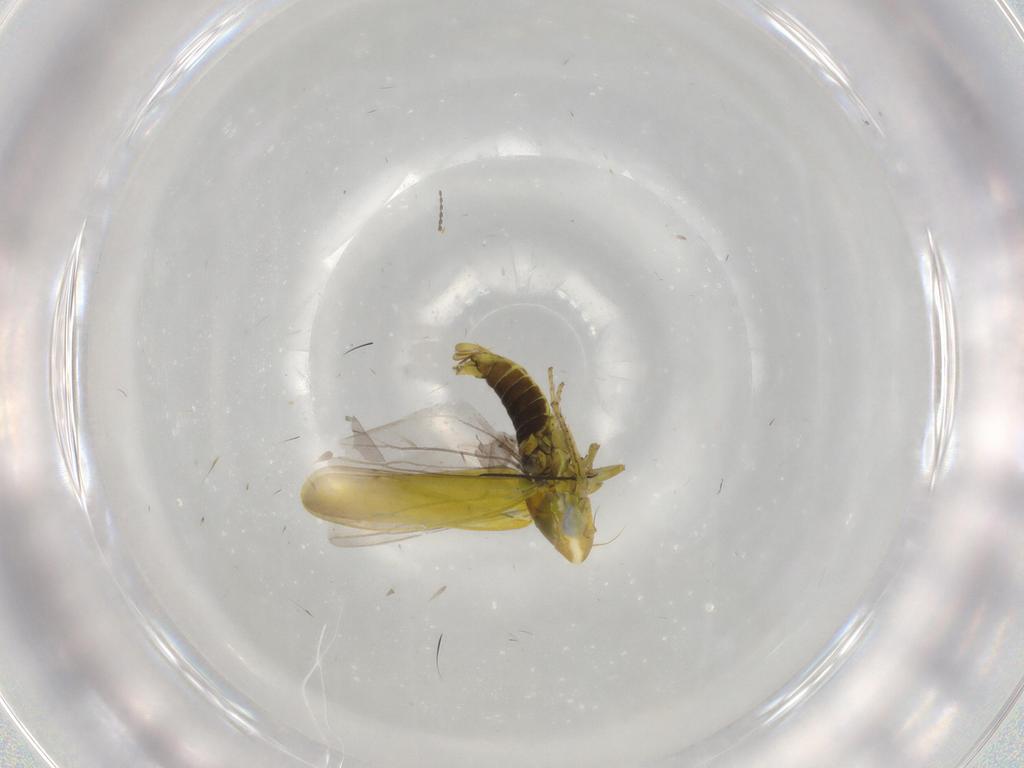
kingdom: Animalia
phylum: Arthropoda
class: Insecta
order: Hemiptera
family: Cicadellidae
